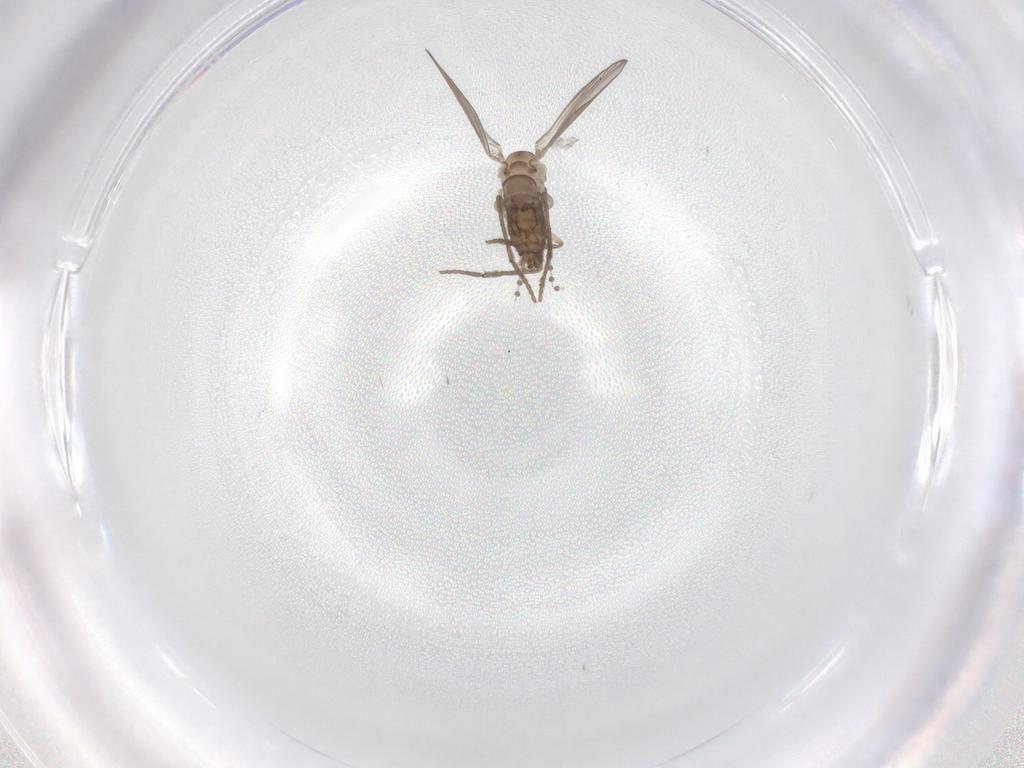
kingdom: Animalia
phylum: Arthropoda
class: Insecta
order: Diptera
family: Psychodidae
